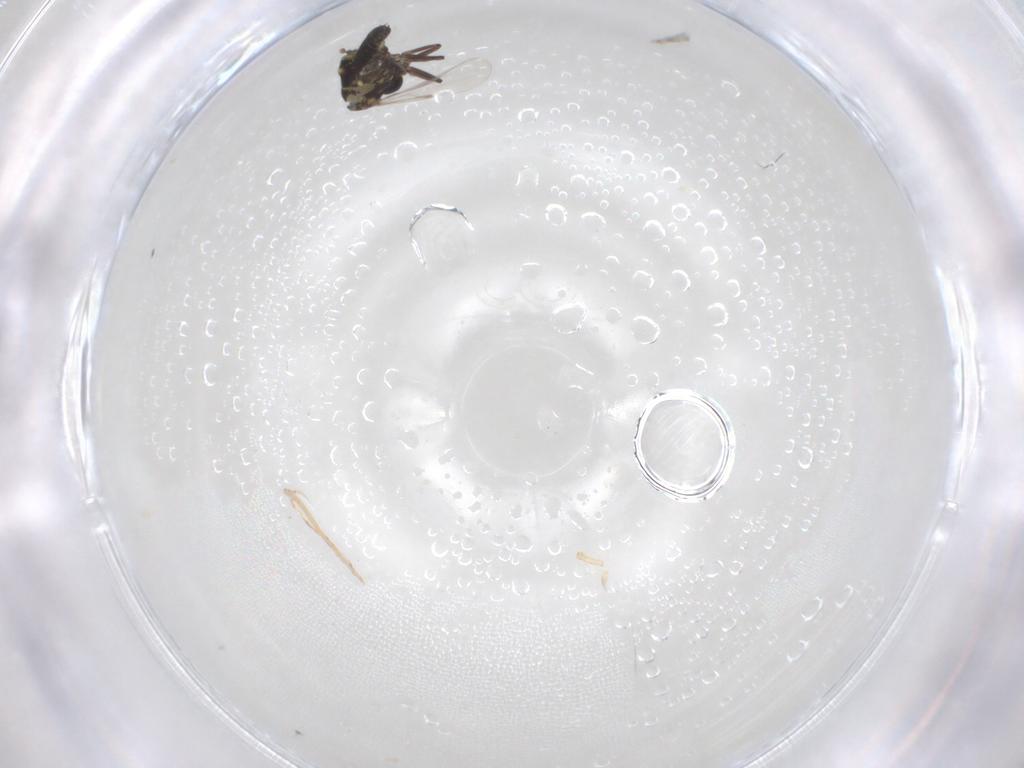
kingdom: Animalia
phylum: Arthropoda
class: Insecta
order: Diptera
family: Ceratopogonidae
